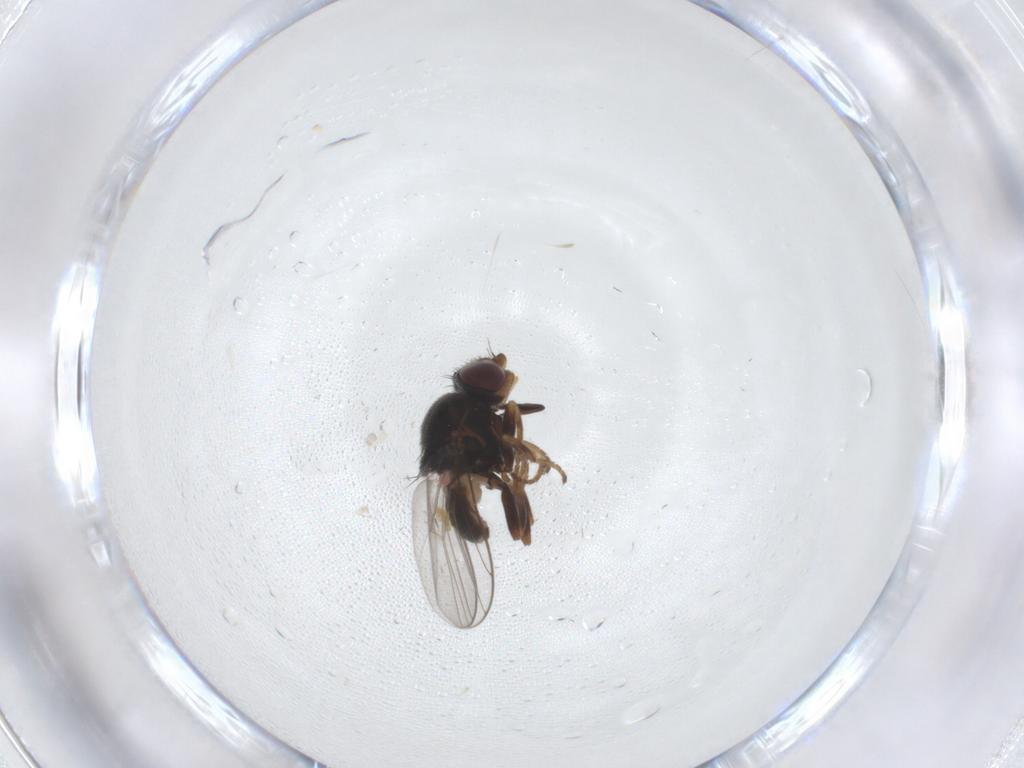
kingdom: Animalia
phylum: Arthropoda
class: Insecta
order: Diptera
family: Chloropidae
